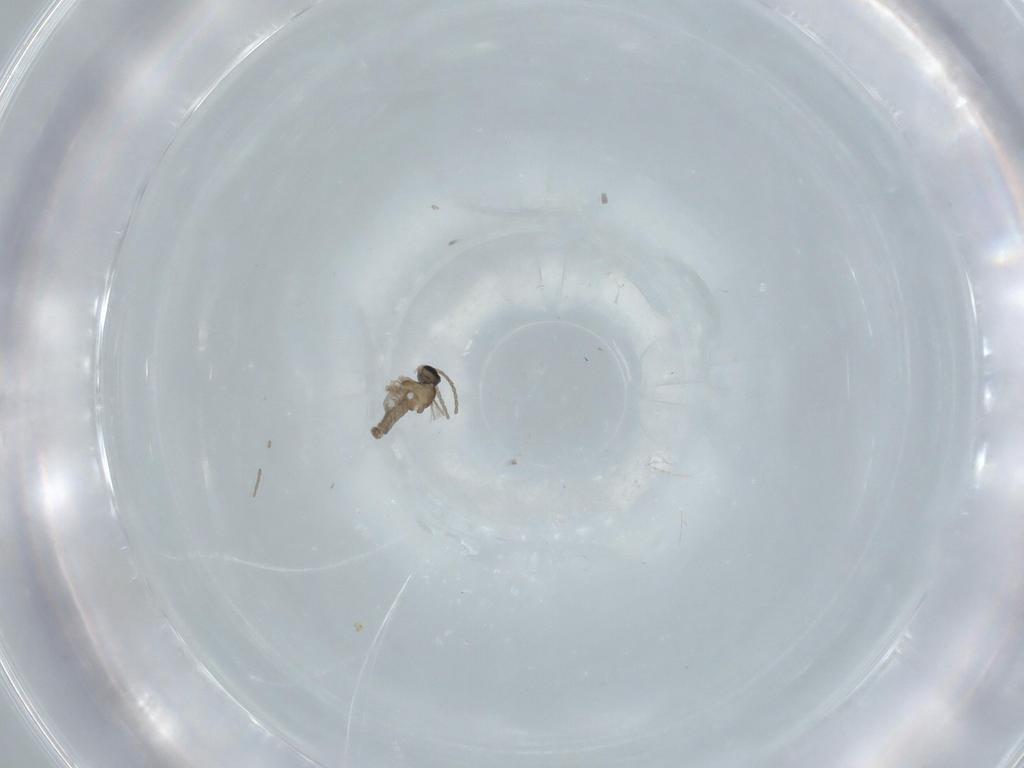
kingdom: Animalia
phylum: Arthropoda
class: Insecta
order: Diptera
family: Cecidomyiidae
